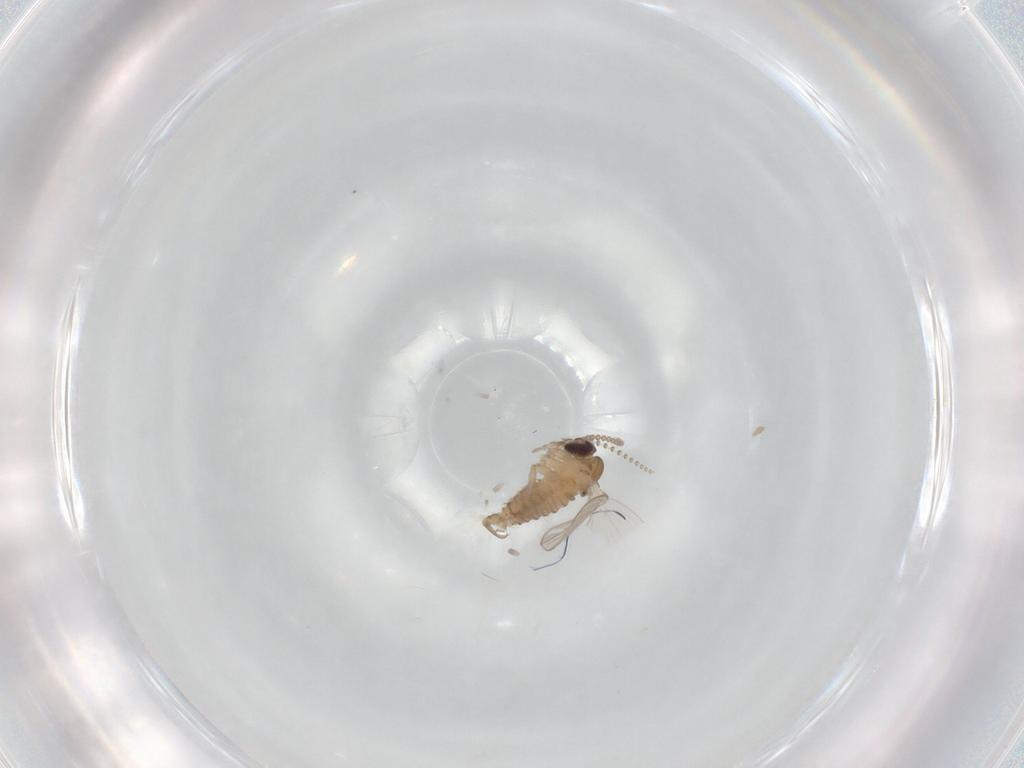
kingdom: Animalia
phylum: Arthropoda
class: Insecta
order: Diptera
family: Psychodidae
